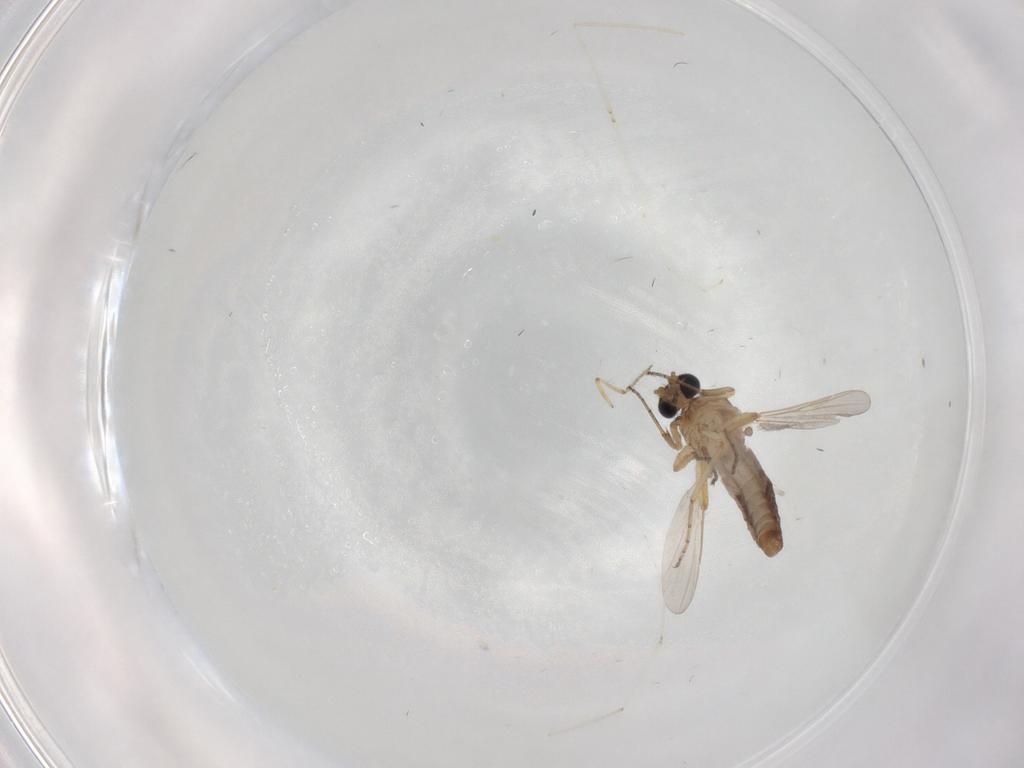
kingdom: Animalia
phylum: Arthropoda
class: Insecta
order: Diptera
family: Ceratopogonidae
